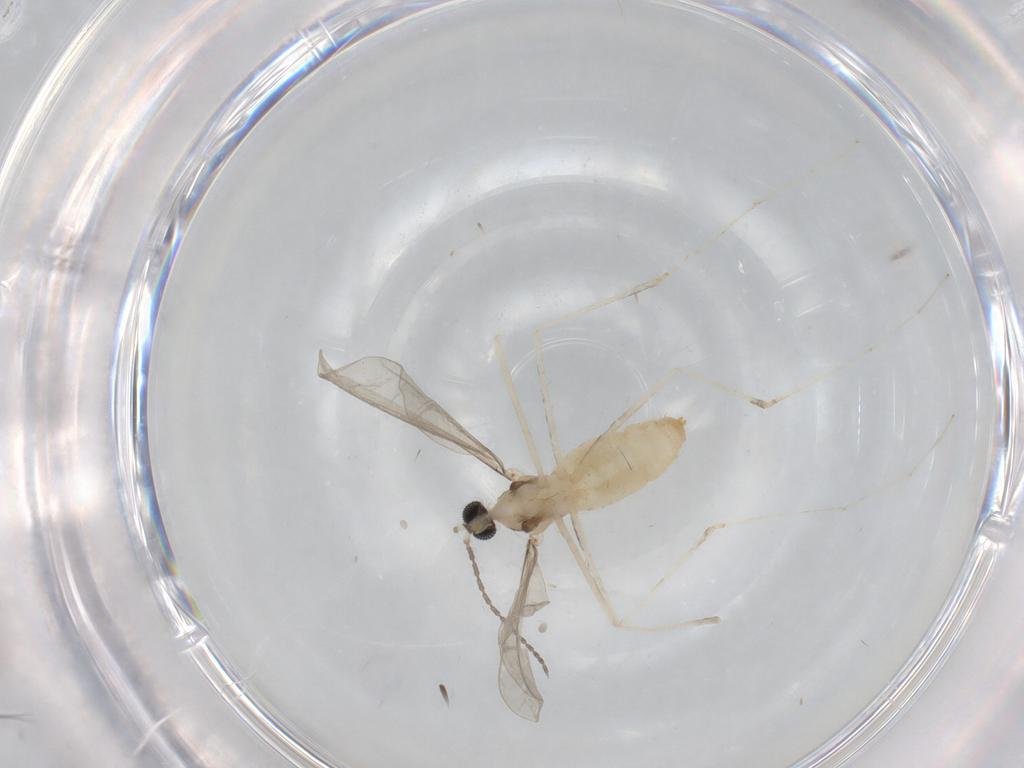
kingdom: Animalia
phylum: Arthropoda
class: Insecta
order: Diptera
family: Cecidomyiidae
